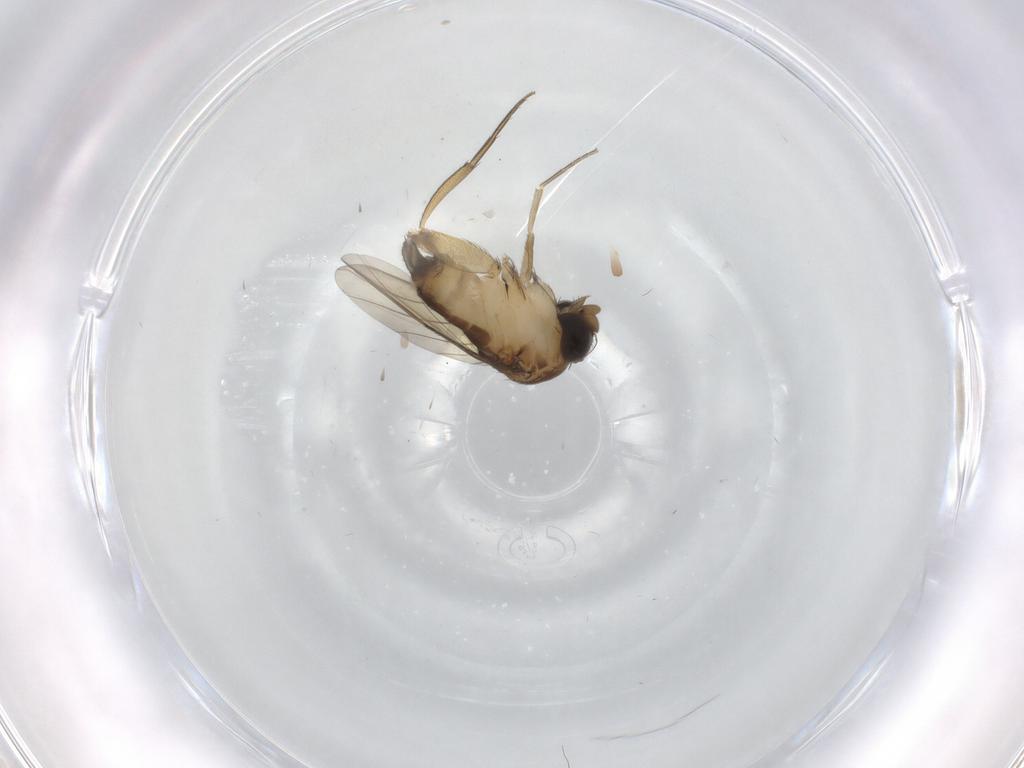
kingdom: Animalia
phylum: Arthropoda
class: Insecta
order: Diptera
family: Phoridae
